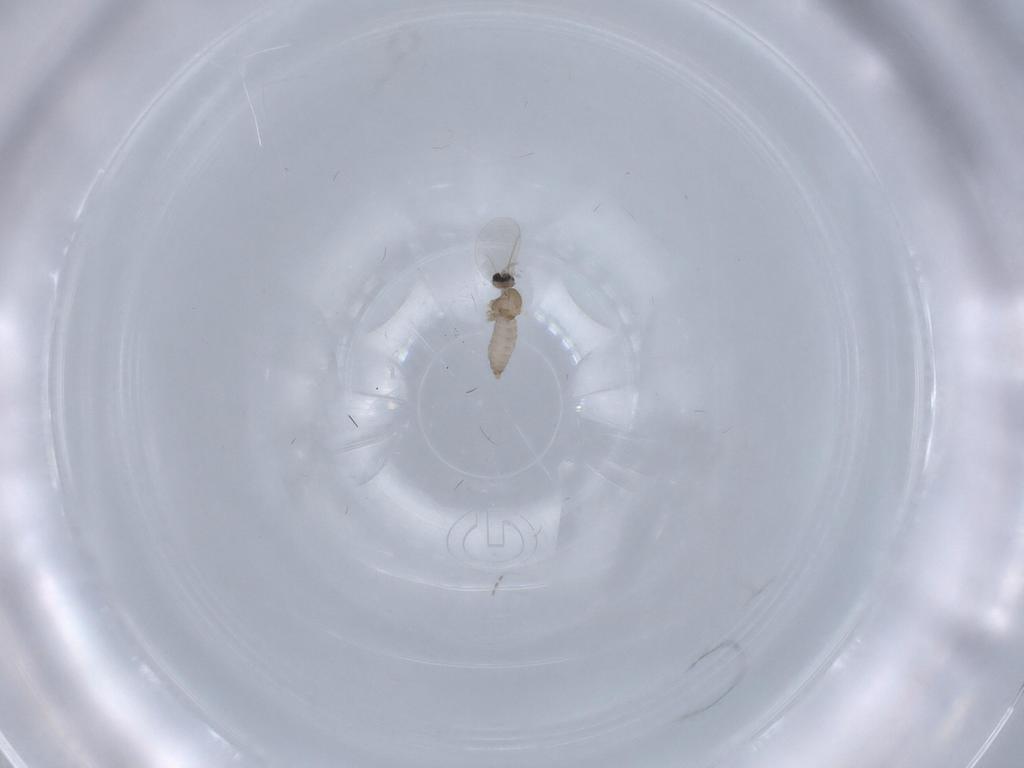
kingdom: Animalia
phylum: Arthropoda
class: Insecta
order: Diptera
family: Cecidomyiidae
